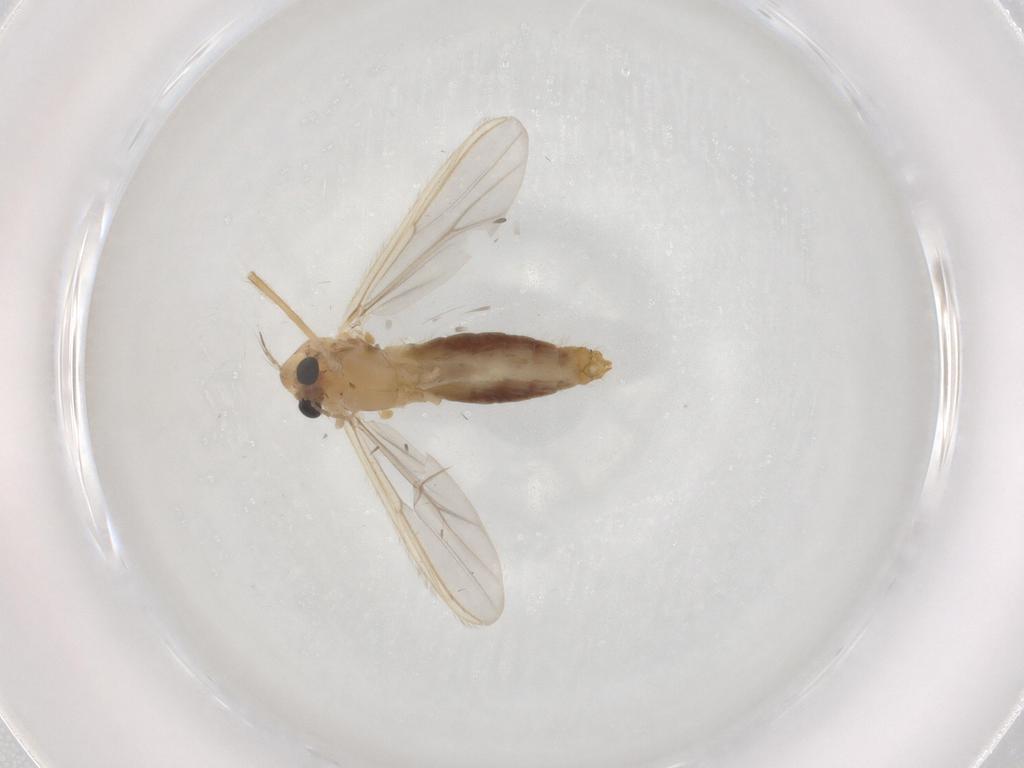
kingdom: Animalia
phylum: Arthropoda
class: Insecta
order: Diptera
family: Chironomidae
